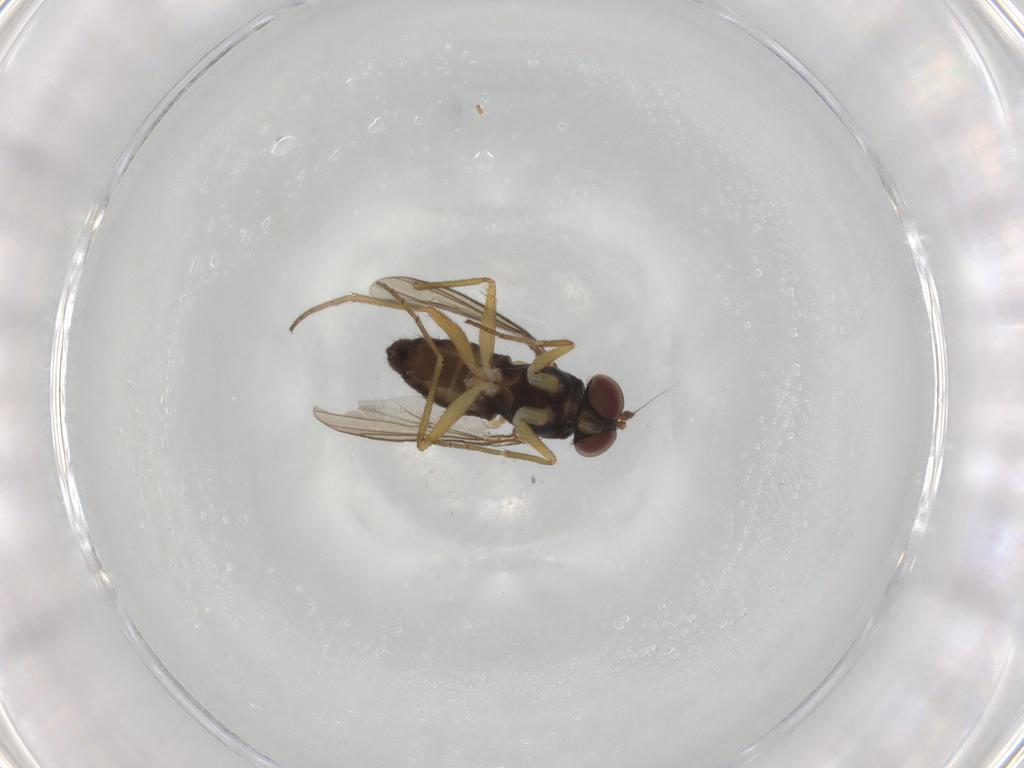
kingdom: Animalia
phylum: Arthropoda
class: Insecta
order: Diptera
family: Dolichopodidae
